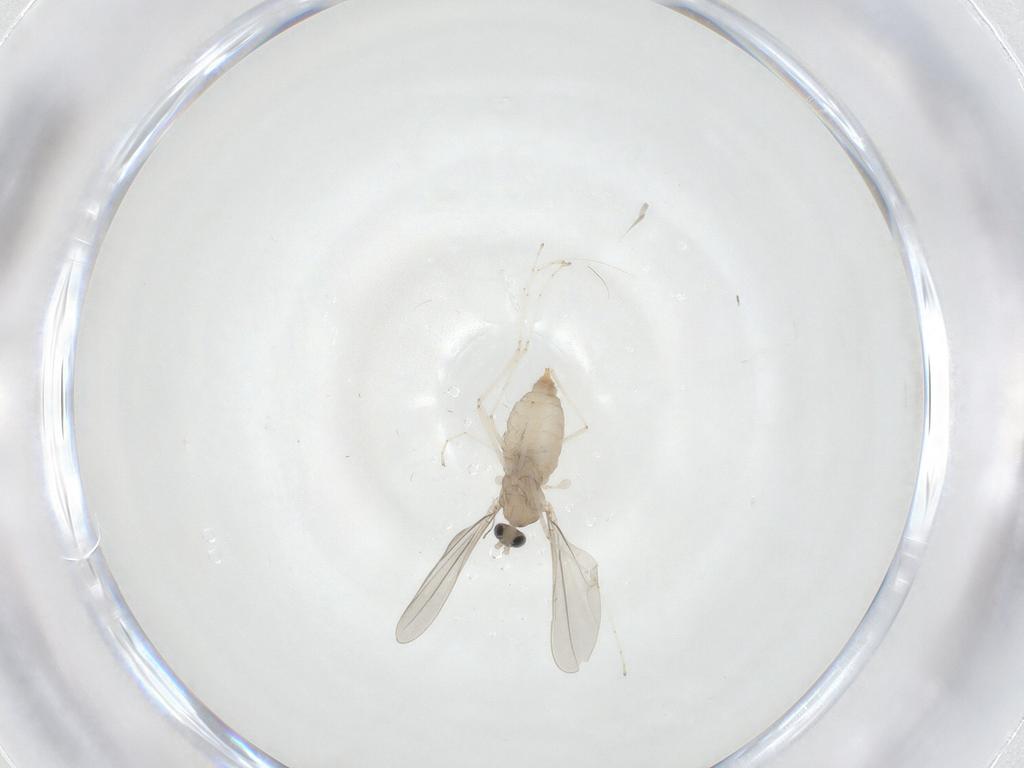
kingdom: Animalia
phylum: Arthropoda
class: Insecta
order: Diptera
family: Cecidomyiidae
